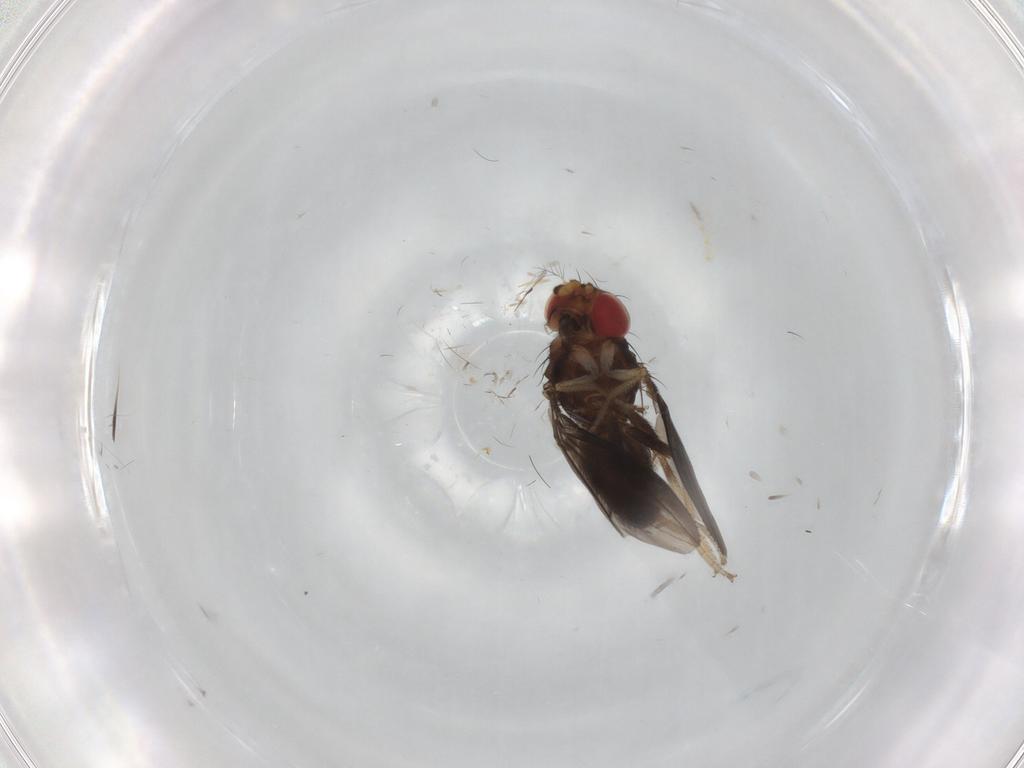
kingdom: Animalia
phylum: Arthropoda
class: Insecta
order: Diptera
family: Drosophilidae
